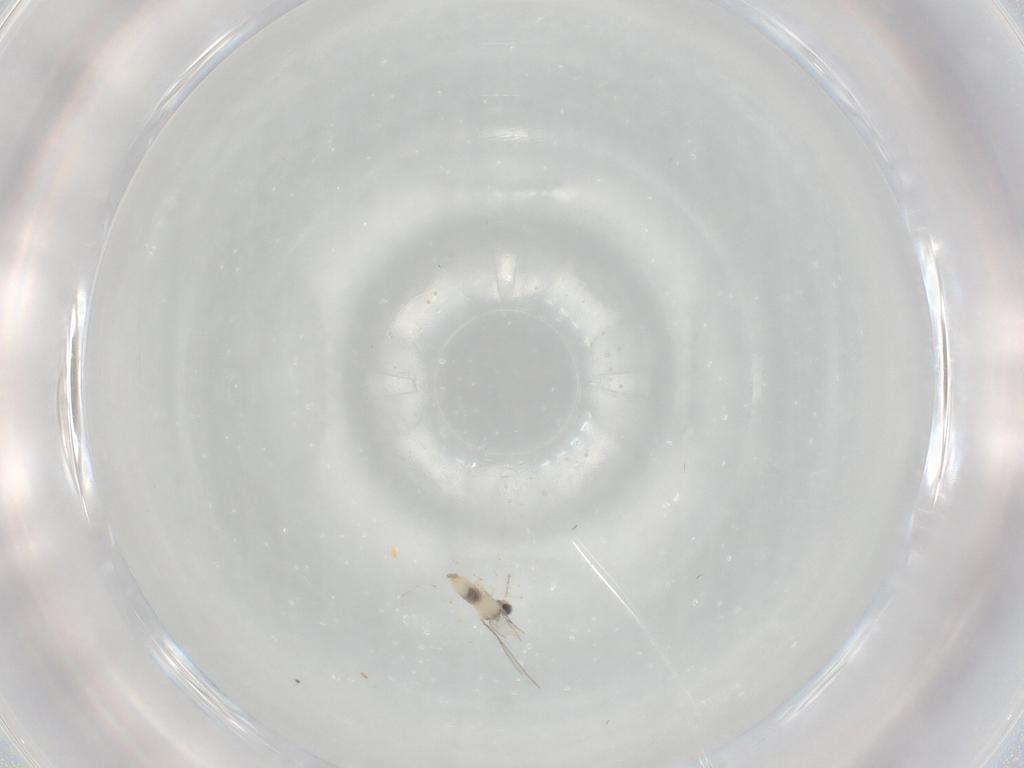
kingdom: Animalia
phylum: Arthropoda
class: Insecta
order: Diptera
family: Cecidomyiidae
